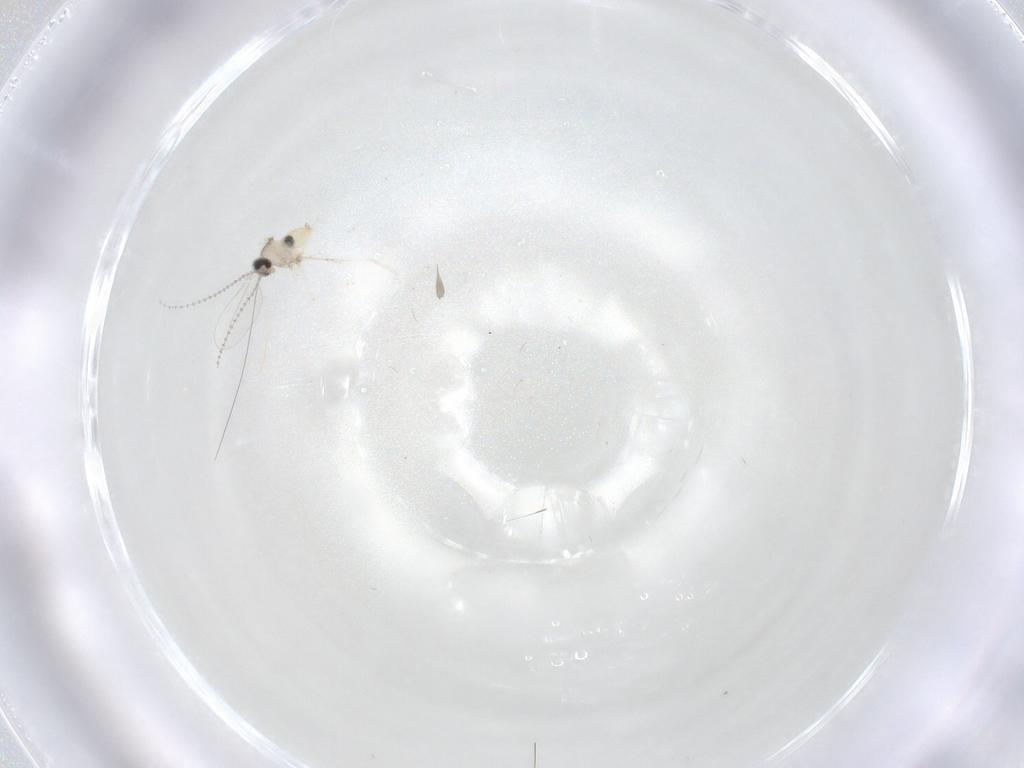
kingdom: Animalia
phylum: Arthropoda
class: Insecta
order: Diptera
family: Cecidomyiidae
